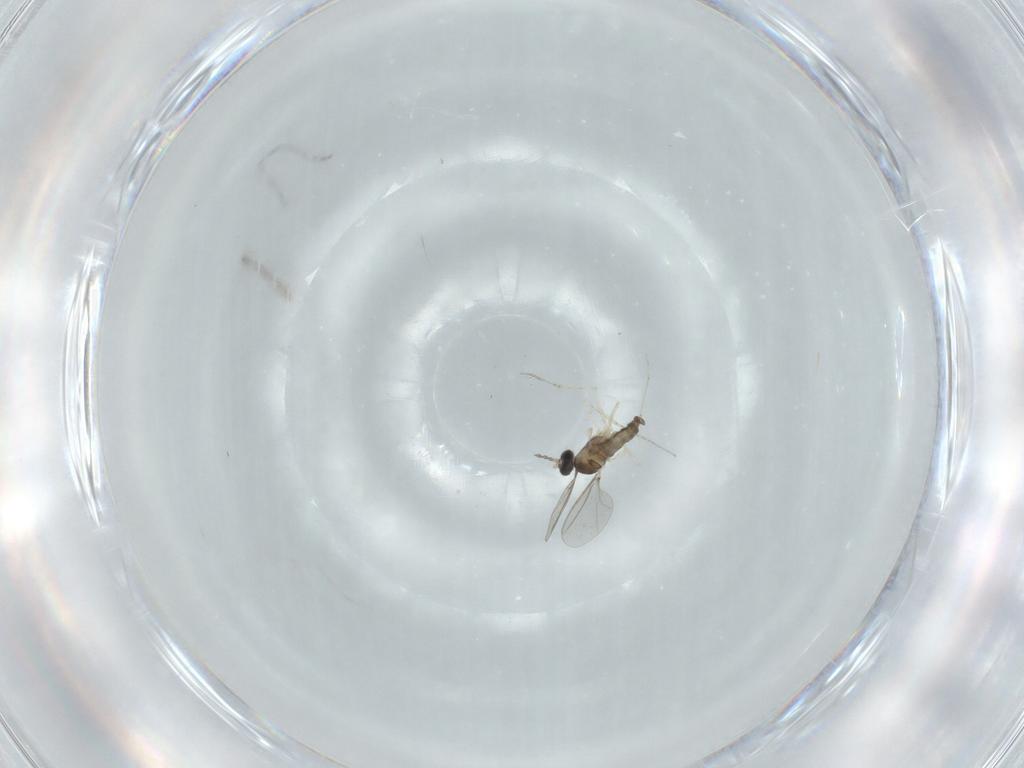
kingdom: Animalia
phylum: Arthropoda
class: Insecta
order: Diptera
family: Cecidomyiidae
